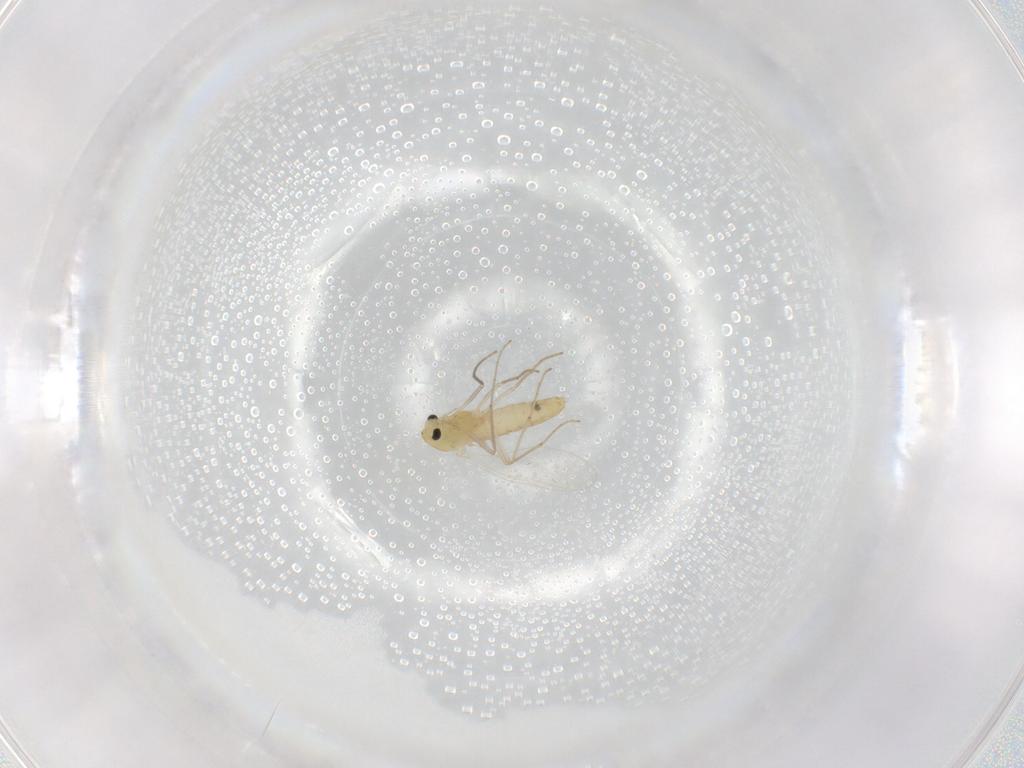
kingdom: Animalia
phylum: Arthropoda
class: Insecta
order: Diptera
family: Chironomidae
